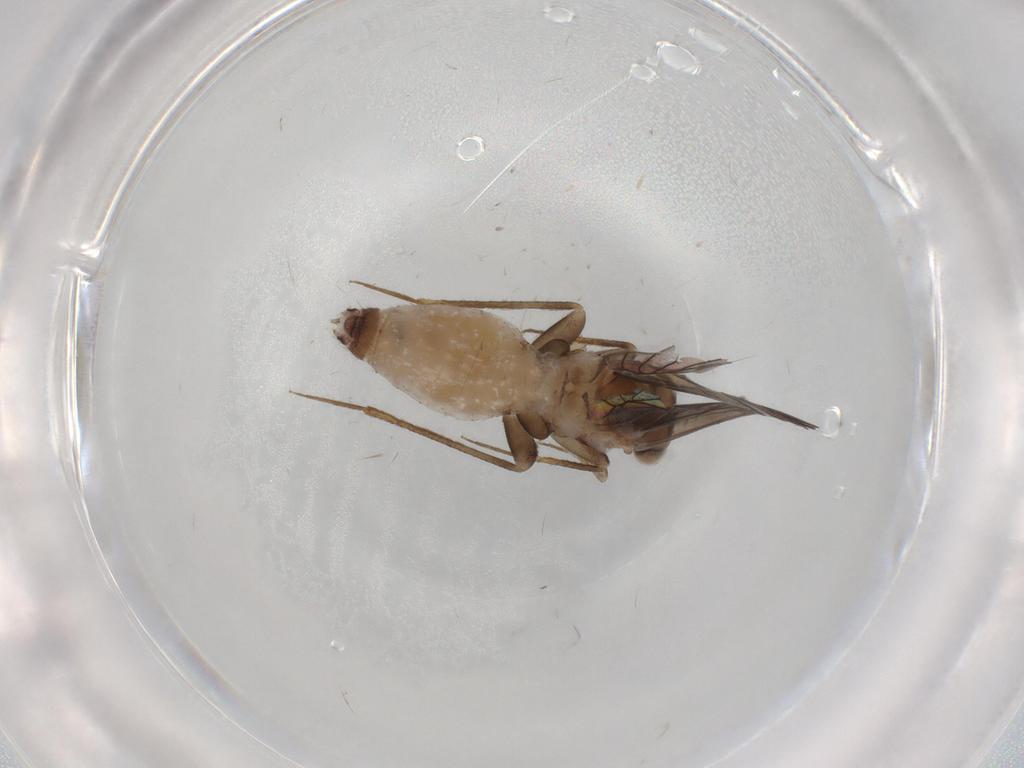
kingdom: Animalia
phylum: Arthropoda
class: Insecta
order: Psocodea
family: Lepidopsocidae
